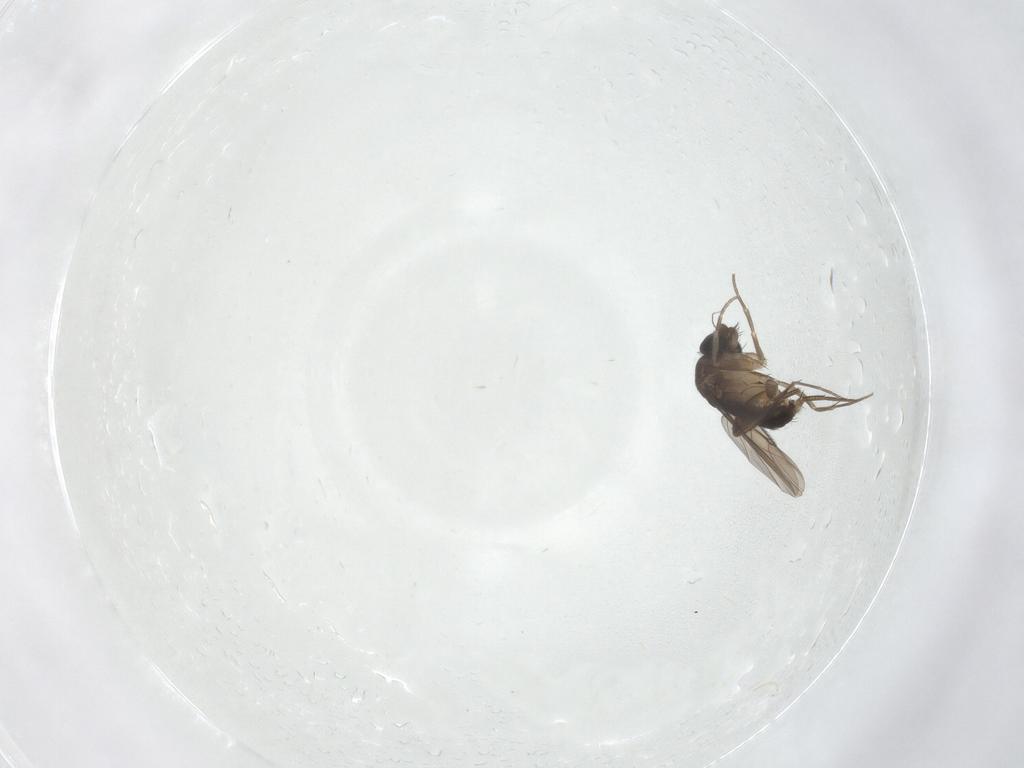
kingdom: Animalia
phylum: Arthropoda
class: Insecta
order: Diptera
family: Phoridae
